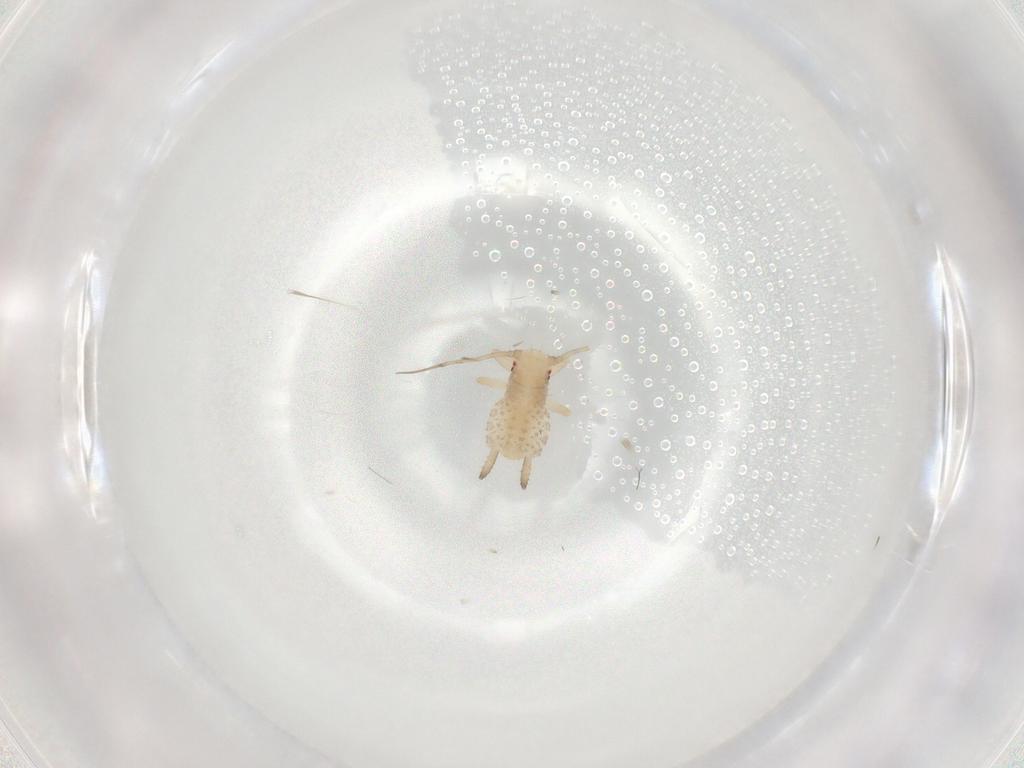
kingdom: Animalia
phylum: Arthropoda
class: Insecta
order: Hemiptera
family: Aphididae
